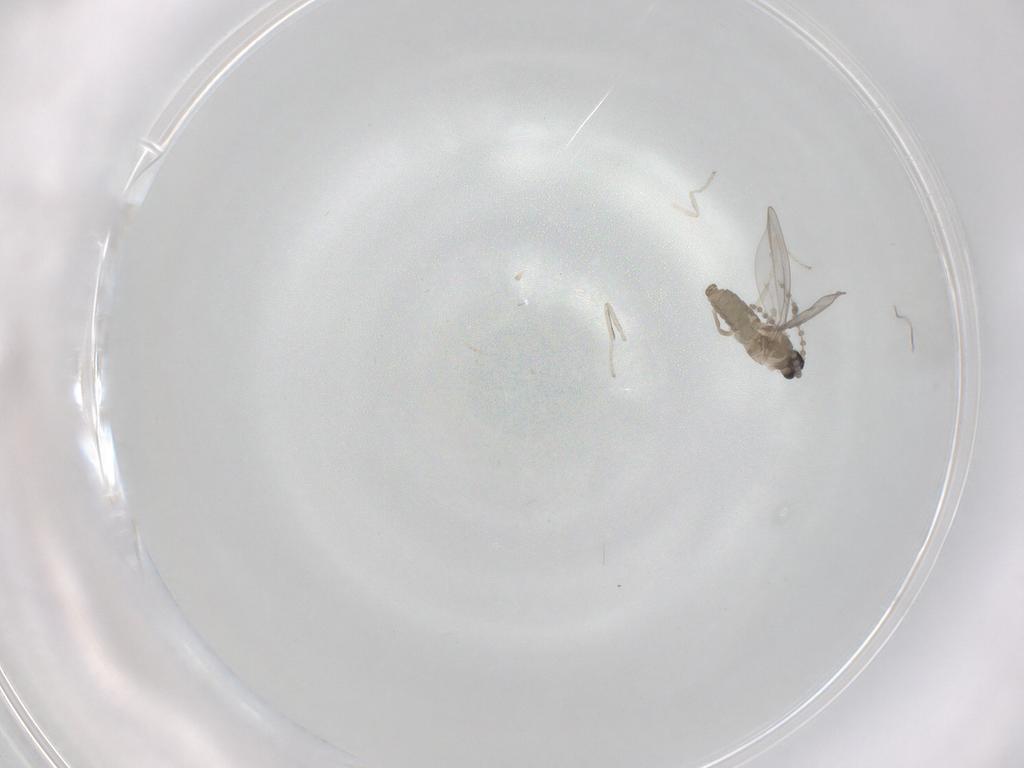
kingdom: Animalia
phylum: Arthropoda
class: Insecta
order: Diptera
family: Cecidomyiidae
